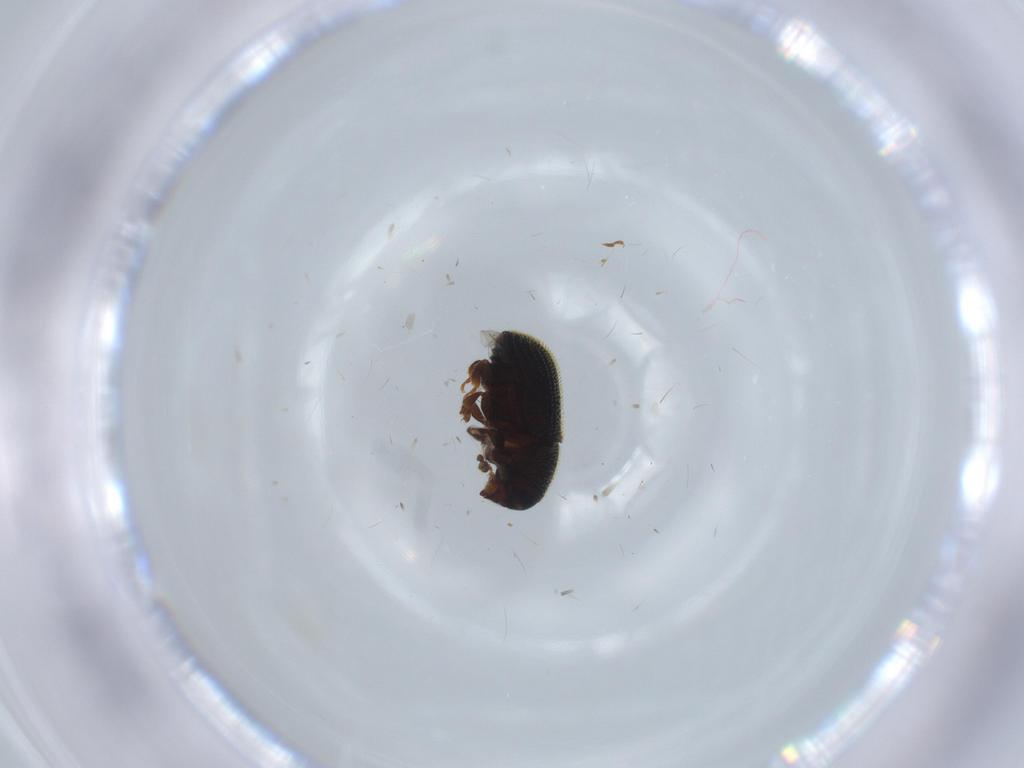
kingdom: Animalia
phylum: Arthropoda
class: Insecta
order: Coleoptera
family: Curculionidae
